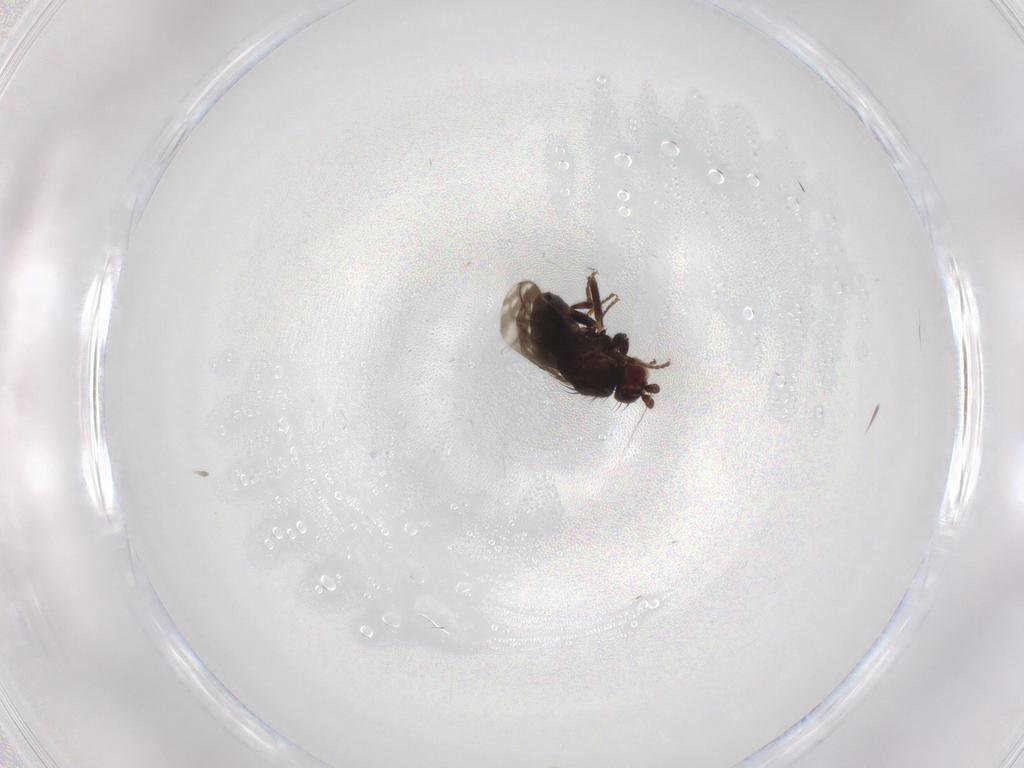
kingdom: Animalia
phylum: Arthropoda
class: Insecta
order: Diptera
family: Sphaeroceridae
